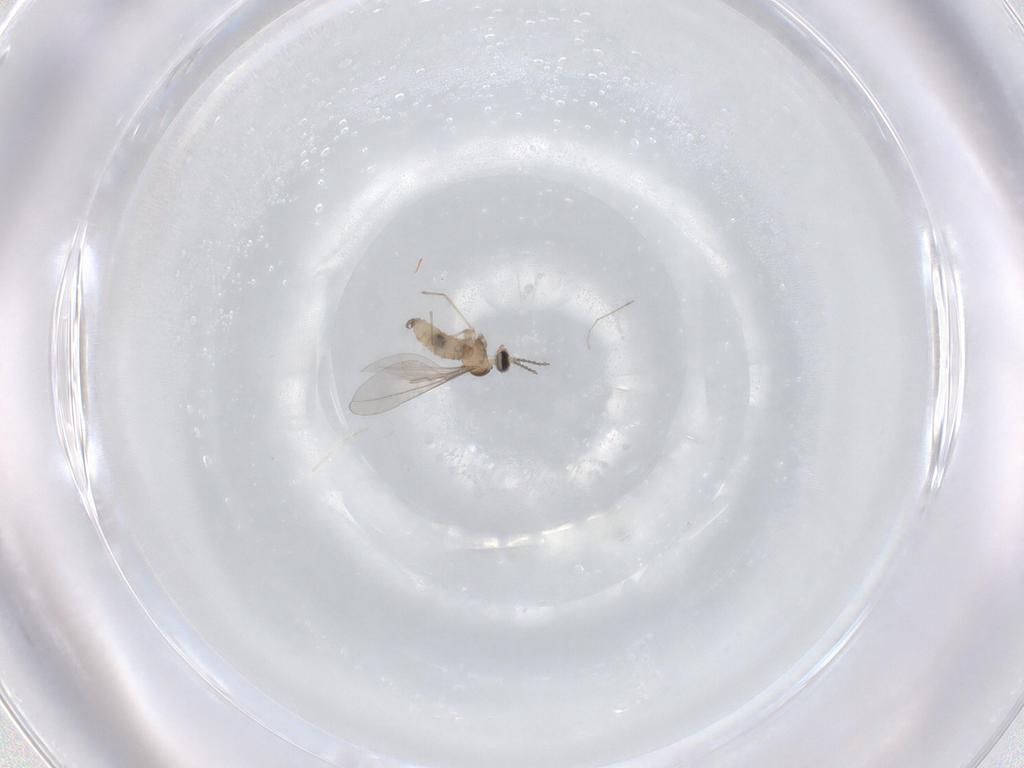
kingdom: Animalia
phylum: Arthropoda
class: Insecta
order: Diptera
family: Cecidomyiidae
